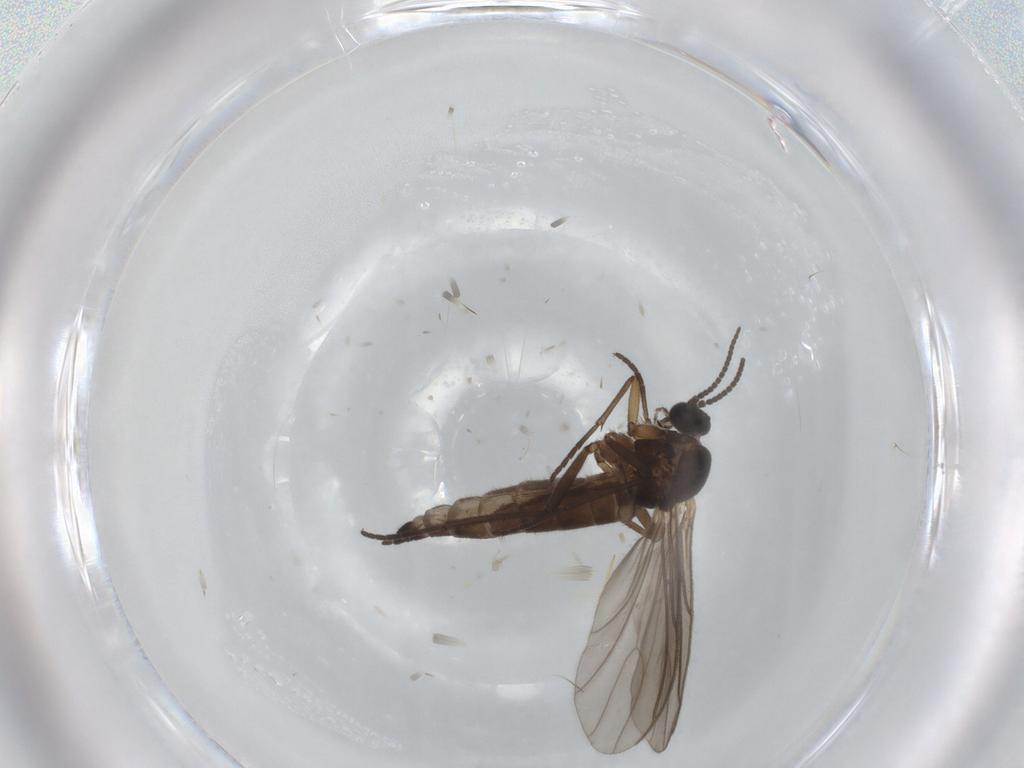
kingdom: Animalia
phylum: Arthropoda
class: Insecta
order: Diptera
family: Sciaridae
